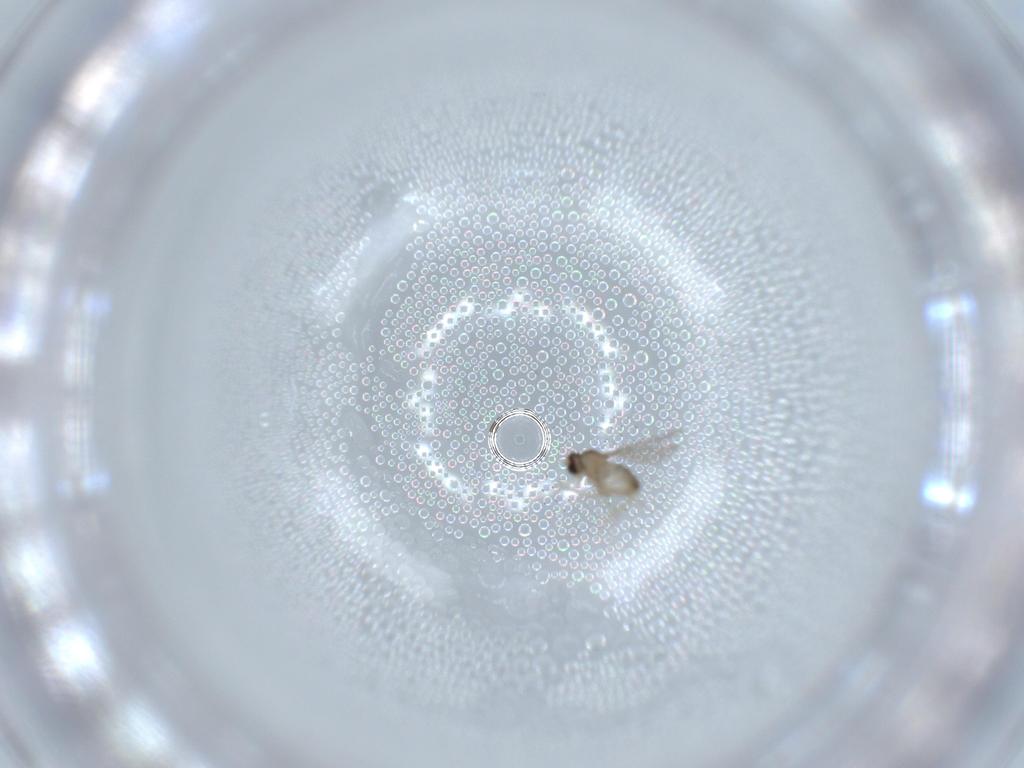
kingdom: Animalia
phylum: Arthropoda
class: Insecta
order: Diptera
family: Cecidomyiidae
